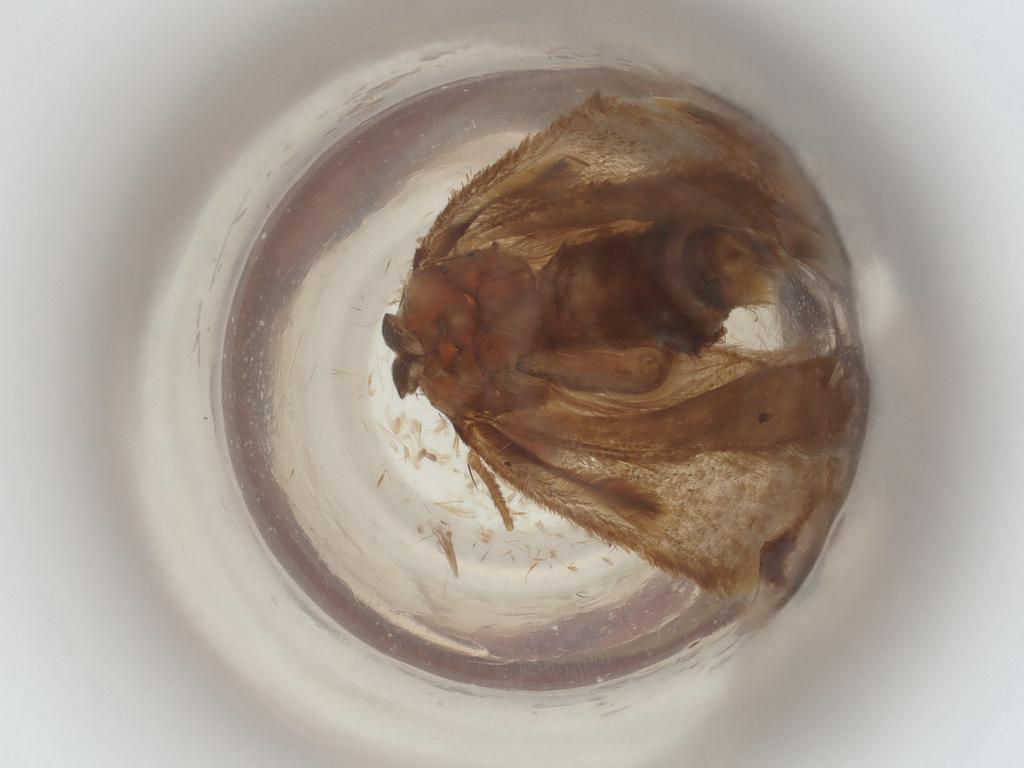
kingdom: Animalia
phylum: Arthropoda
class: Insecta
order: Lepidoptera
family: Gelechiidae
